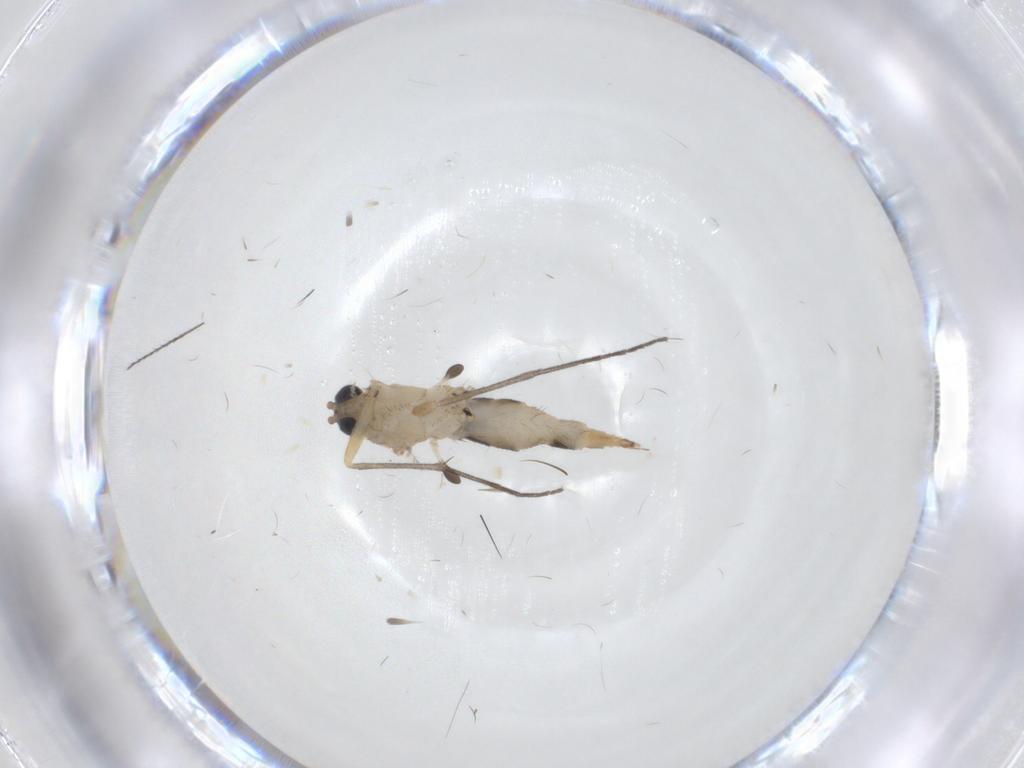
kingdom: Animalia
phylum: Arthropoda
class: Insecta
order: Diptera
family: Sciaridae
